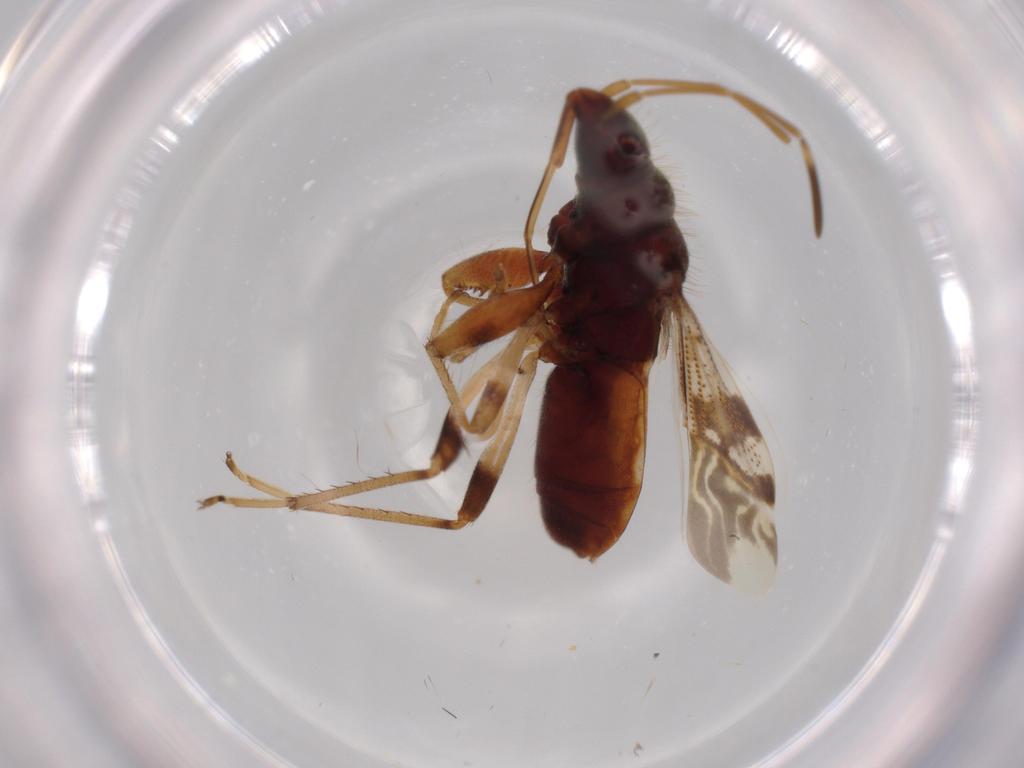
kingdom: Animalia
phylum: Arthropoda
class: Insecta
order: Hemiptera
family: Rhyparochromidae
